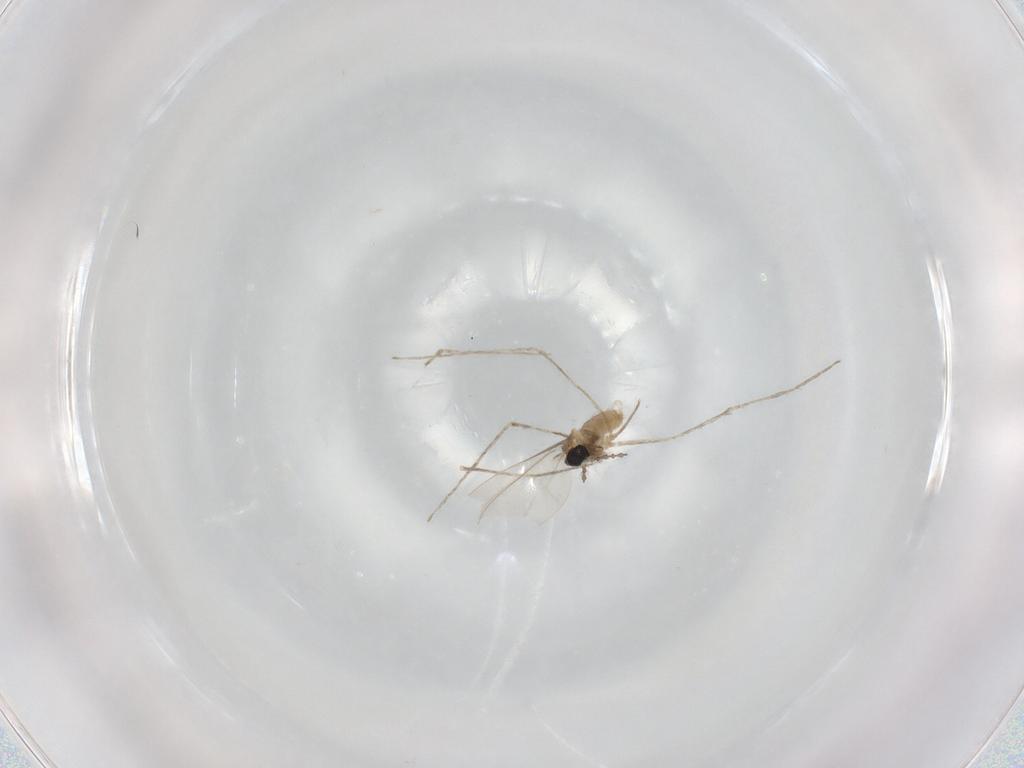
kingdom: Animalia
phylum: Arthropoda
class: Insecta
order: Diptera
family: Cecidomyiidae
